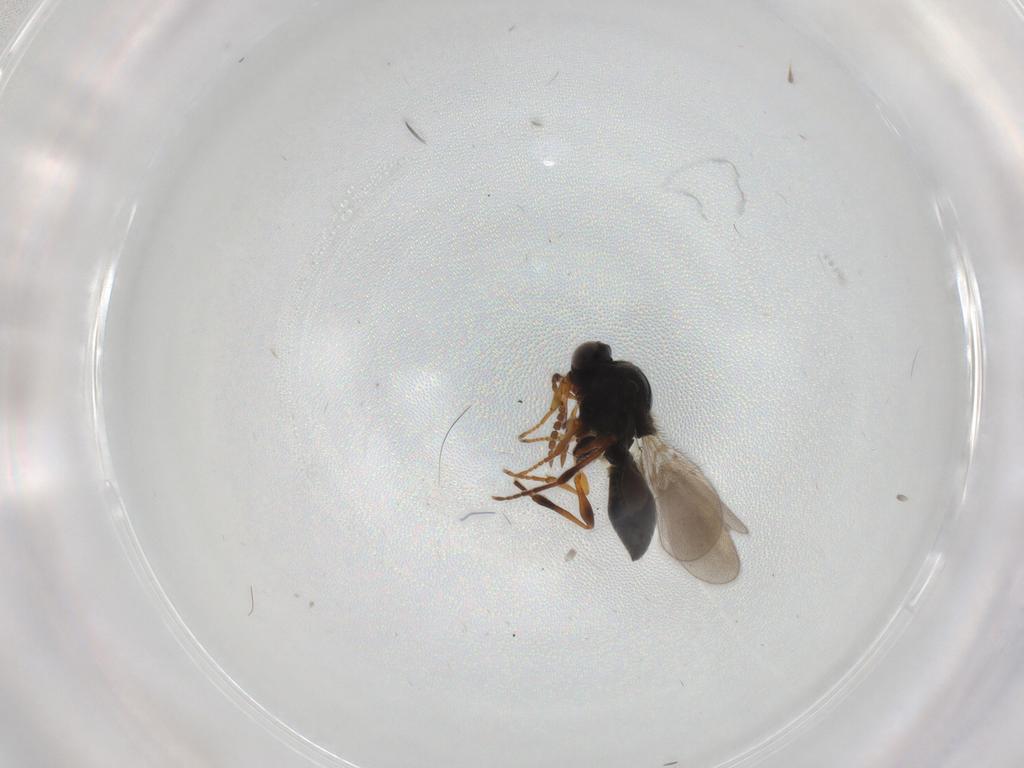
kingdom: Animalia
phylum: Arthropoda
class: Insecta
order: Hymenoptera
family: Platygastridae
